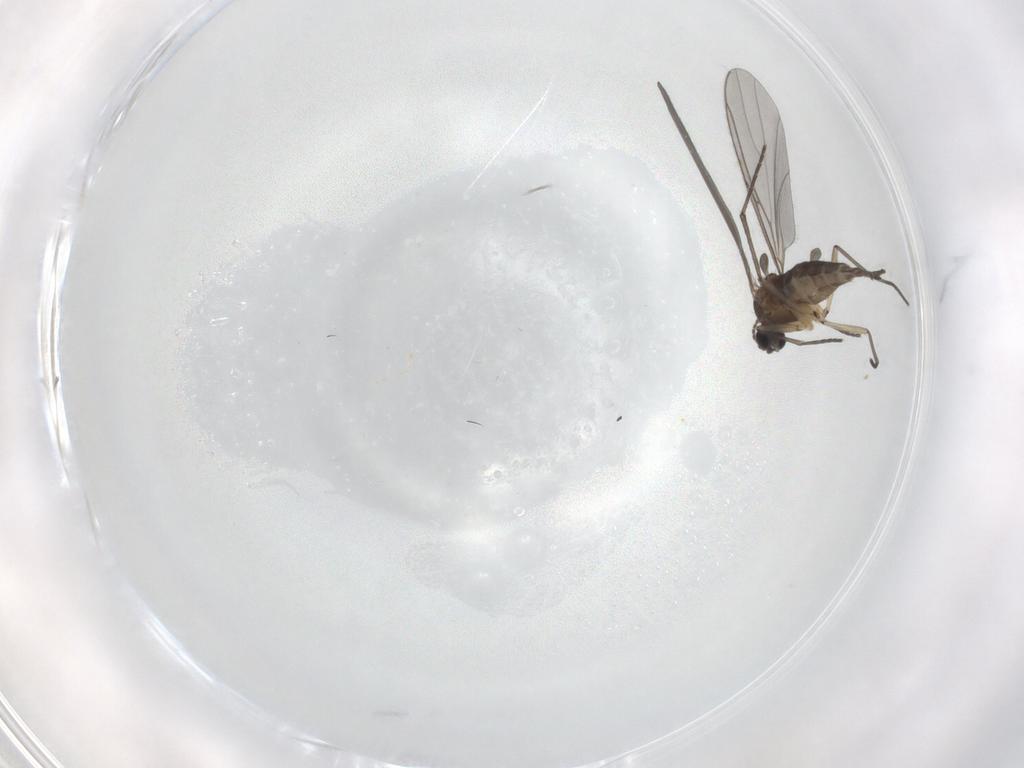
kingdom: Animalia
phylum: Arthropoda
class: Insecta
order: Diptera
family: Sciaridae
